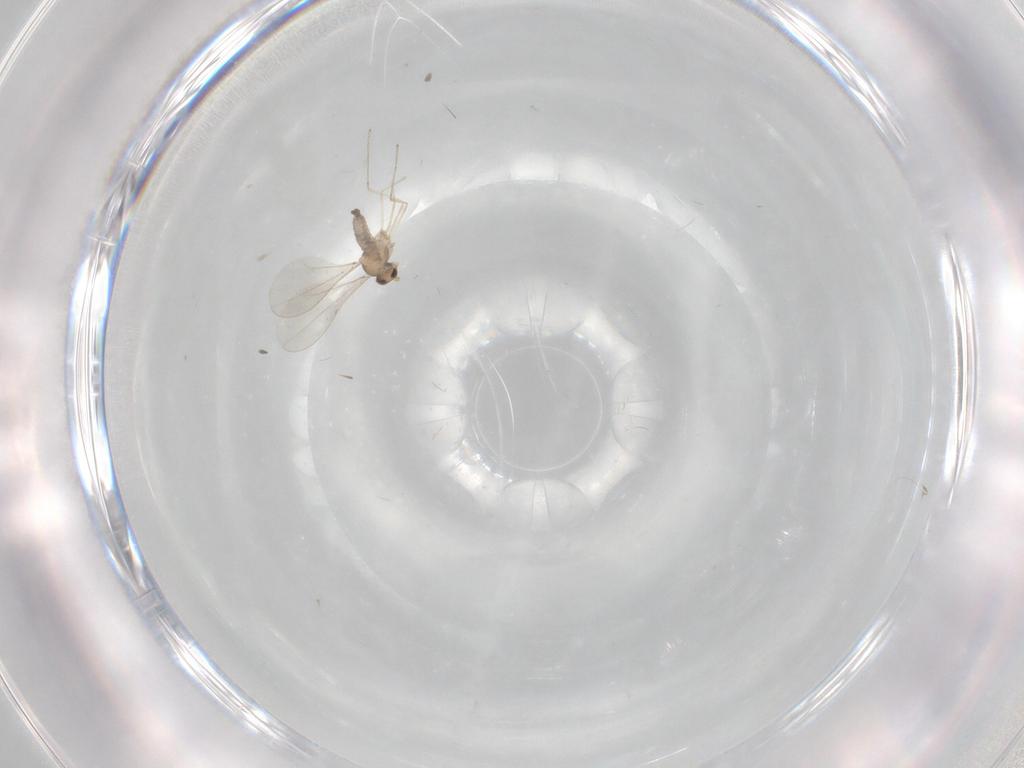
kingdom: Animalia
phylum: Arthropoda
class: Insecta
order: Diptera
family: Cecidomyiidae
